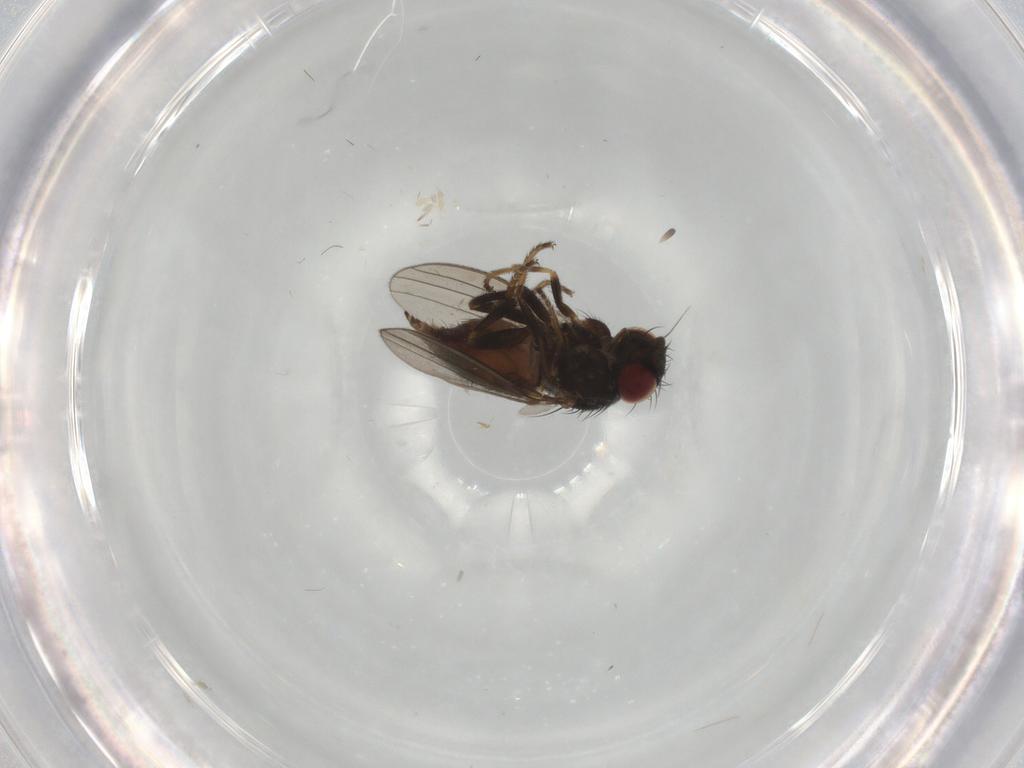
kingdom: Animalia
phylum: Arthropoda
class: Insecta
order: Diptera
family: Milichiidae
